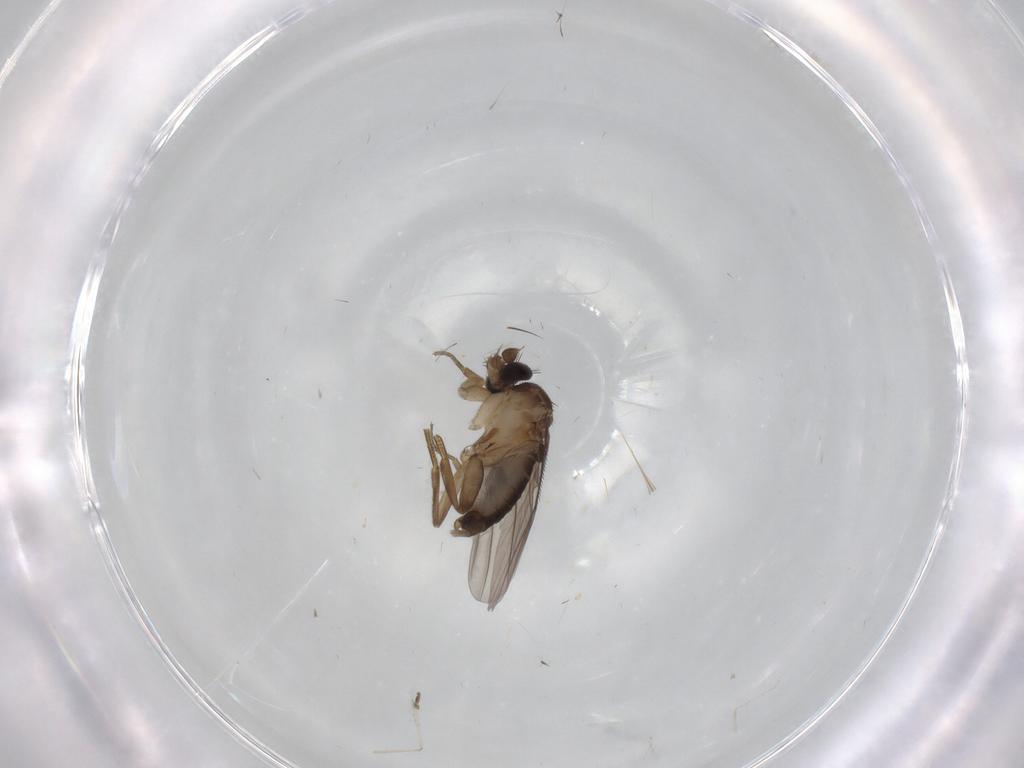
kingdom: Animalia
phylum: Arthropoda
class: Insecta
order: Diptera
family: Phoridae
